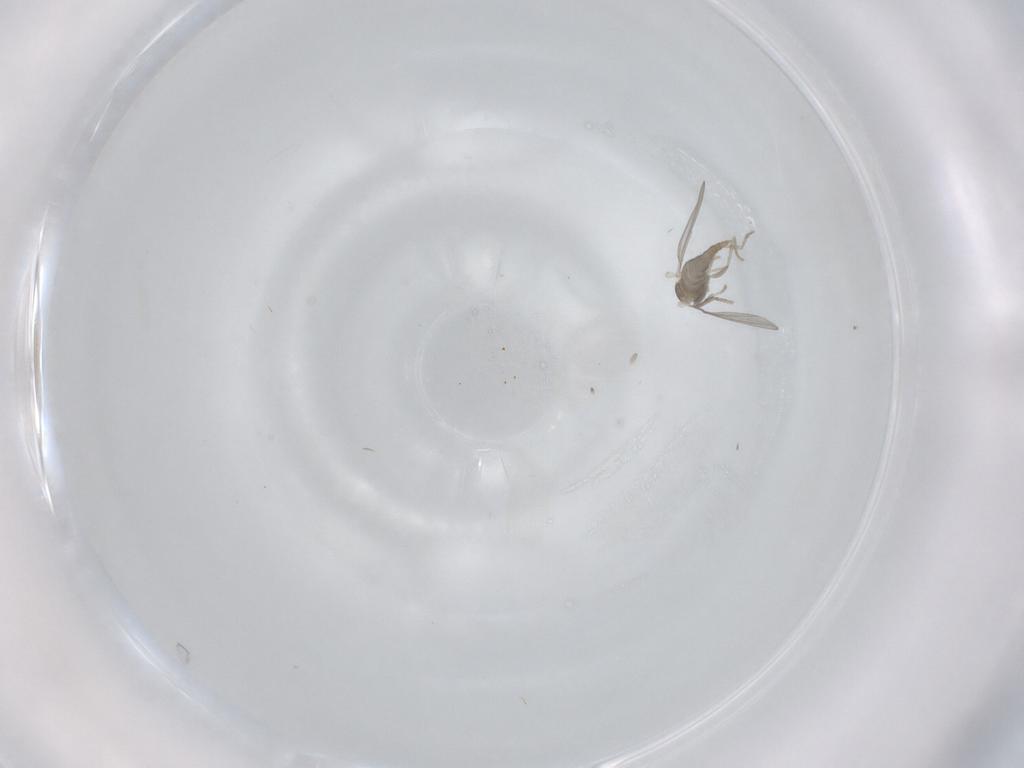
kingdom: Animalia
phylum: Arthropoda
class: Insecta
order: Diptera
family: Cecidomyiidae
